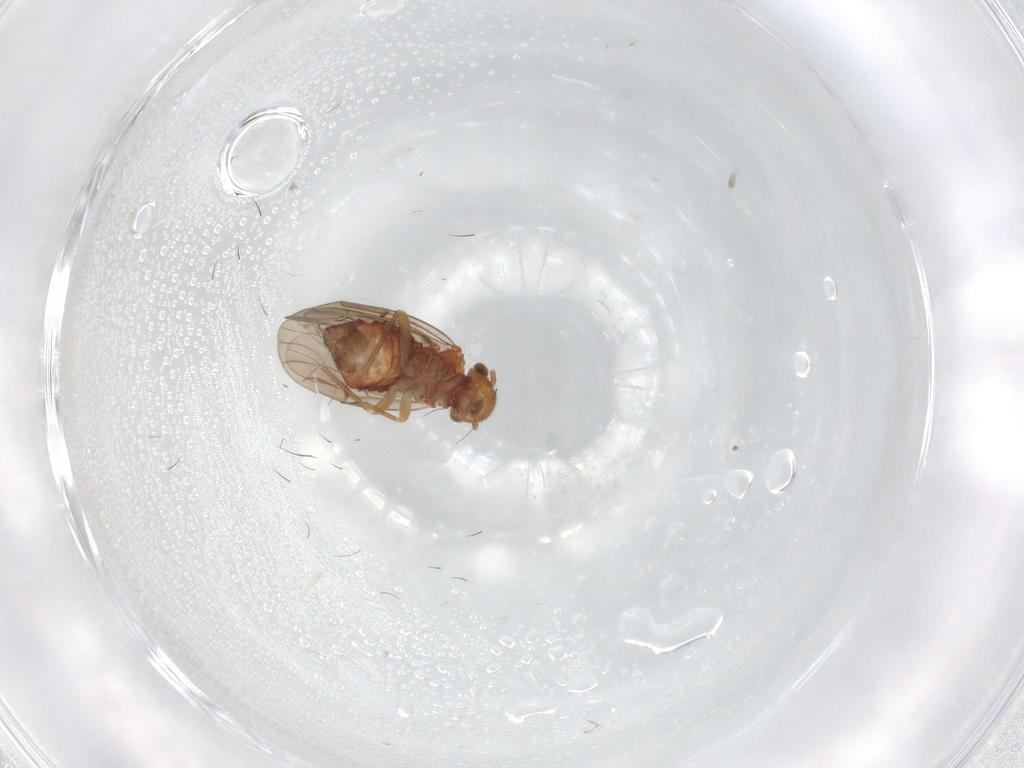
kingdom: Animalia
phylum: Arthropoda
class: Insecta
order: Psocodea
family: Ectopsocidae
